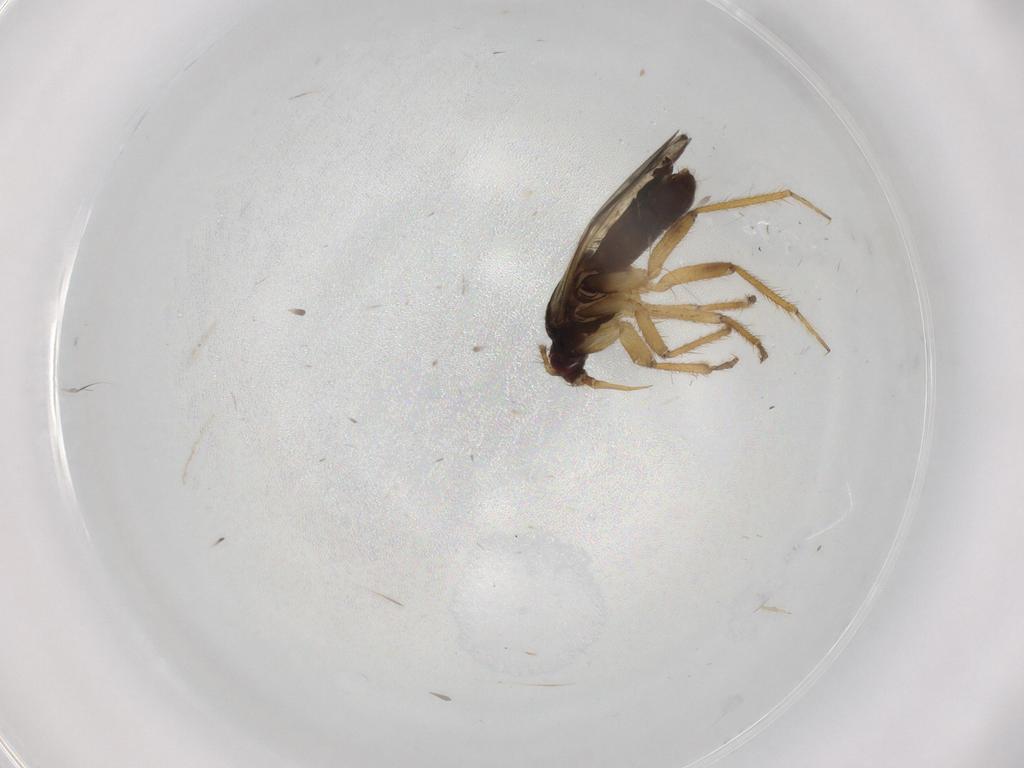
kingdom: Animalia
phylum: Arthropoda
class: Insecta
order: Hemiptera
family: Ceratocombidae
